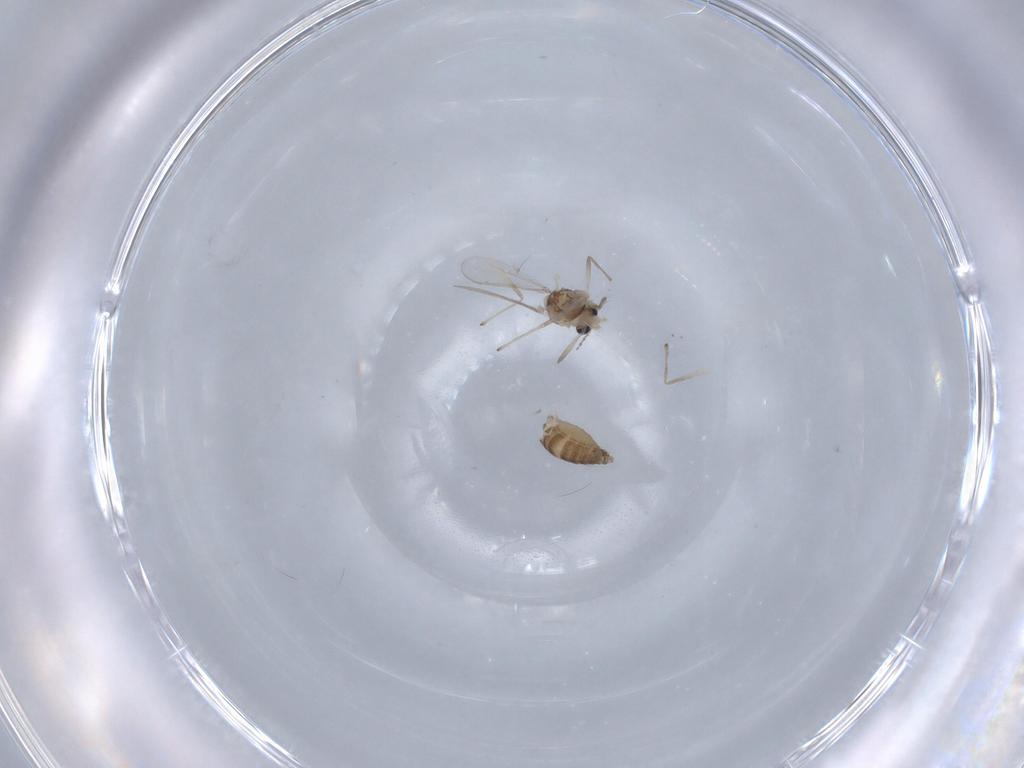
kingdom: Animalia
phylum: Arthropoda
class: Insecta
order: Diptera
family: Chironomidae
